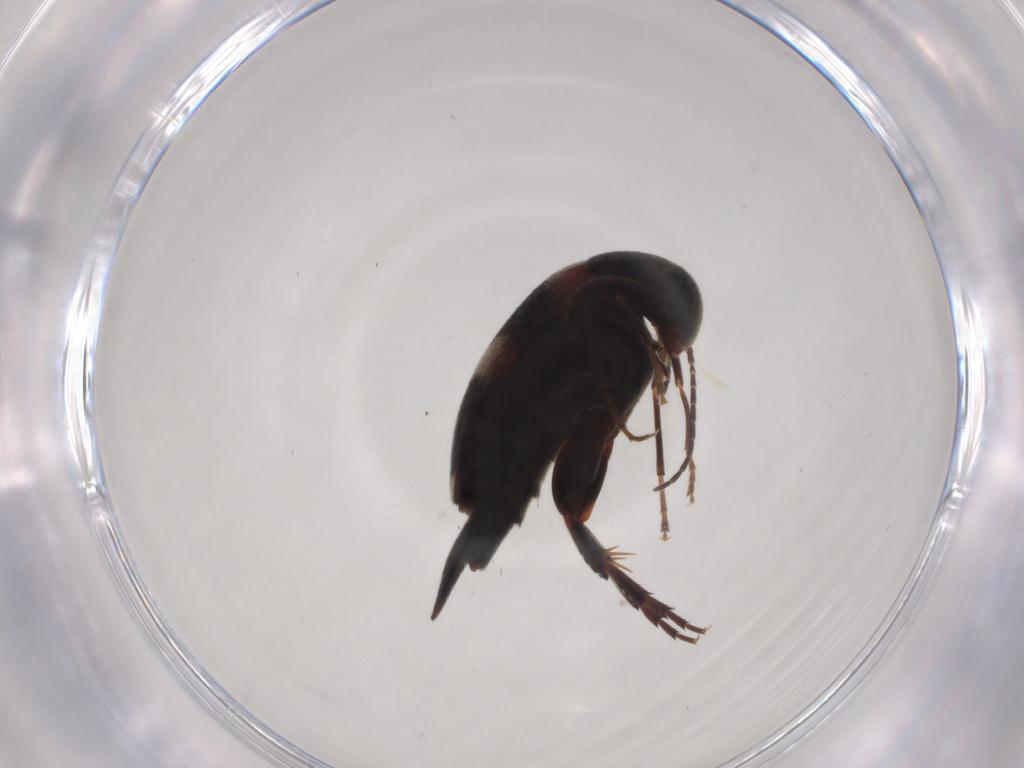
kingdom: Animalia
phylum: Arthropoda
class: Insecta
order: Coleoptera
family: Mordellidae
